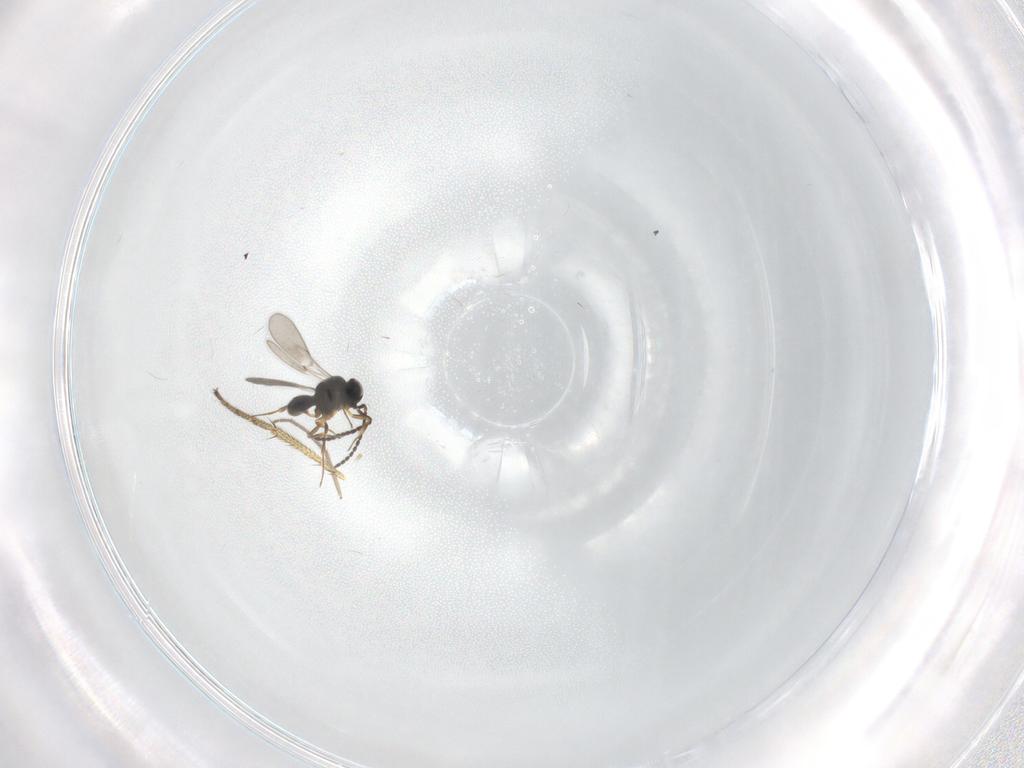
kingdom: Animalia
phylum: Arthropoda
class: Insecta
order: Hymenoptera
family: Scelionidae
